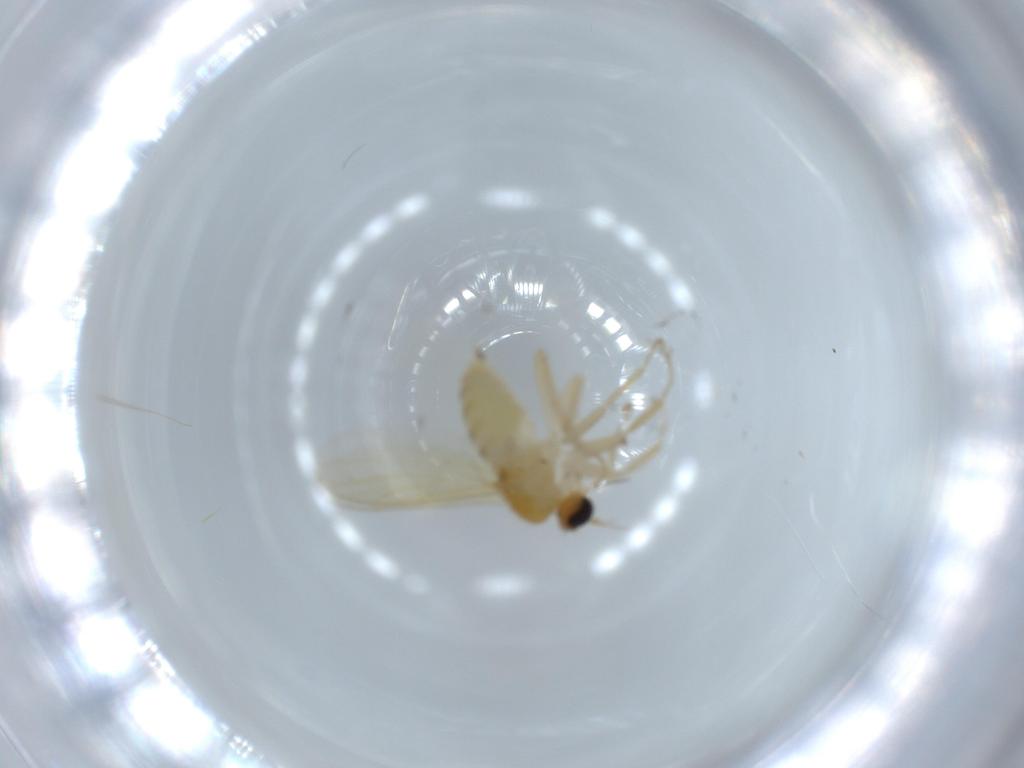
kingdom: Animalia
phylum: Arthropoda
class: Insecta
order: Diptera
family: Hybotidae
